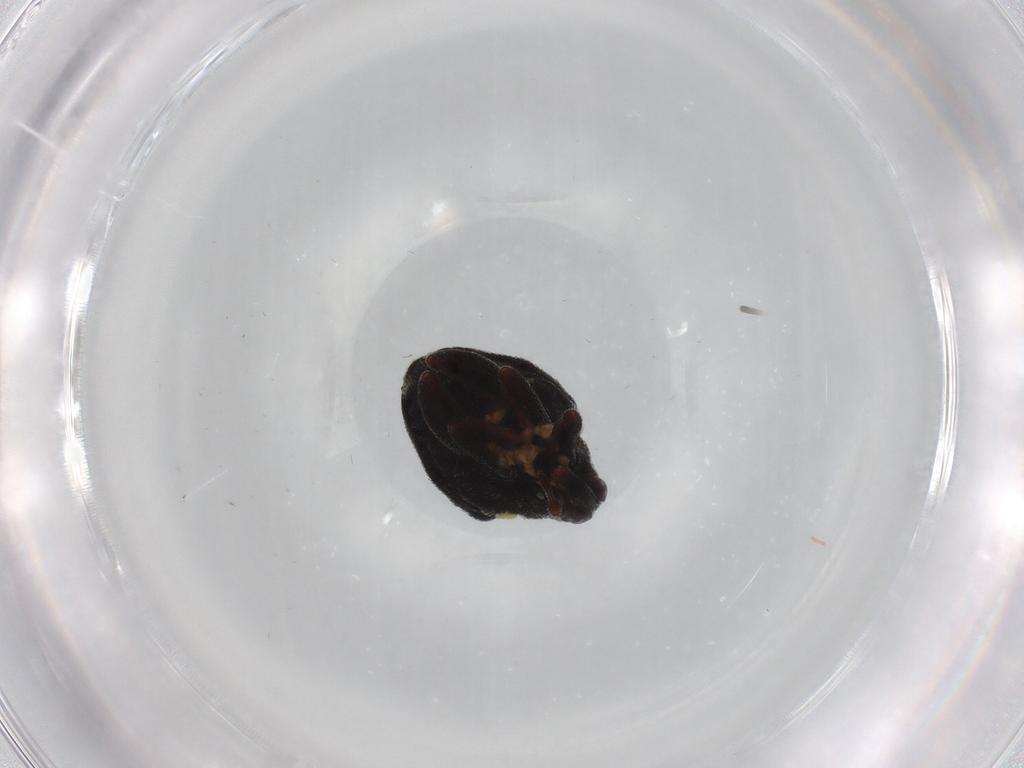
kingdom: Animalia
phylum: Arthropoda
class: Insecta
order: Coleoptera
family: Curculionidae
